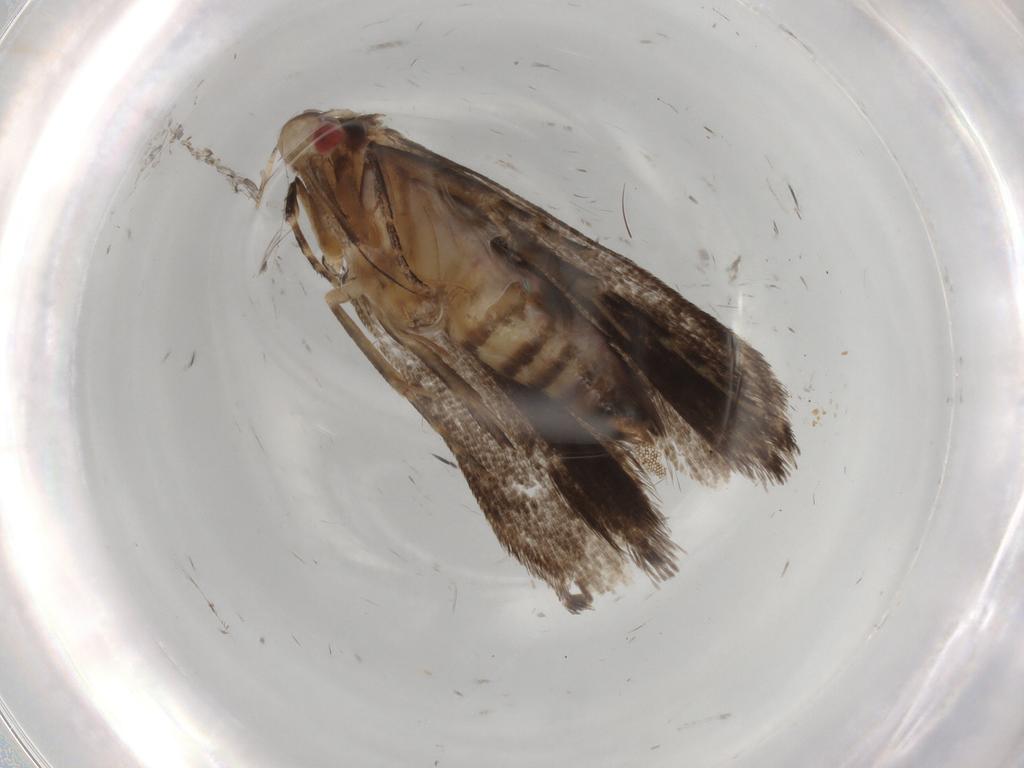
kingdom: Animalia
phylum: Arthropoda
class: Insecta
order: Lepidoptera
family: Gelechiidae
